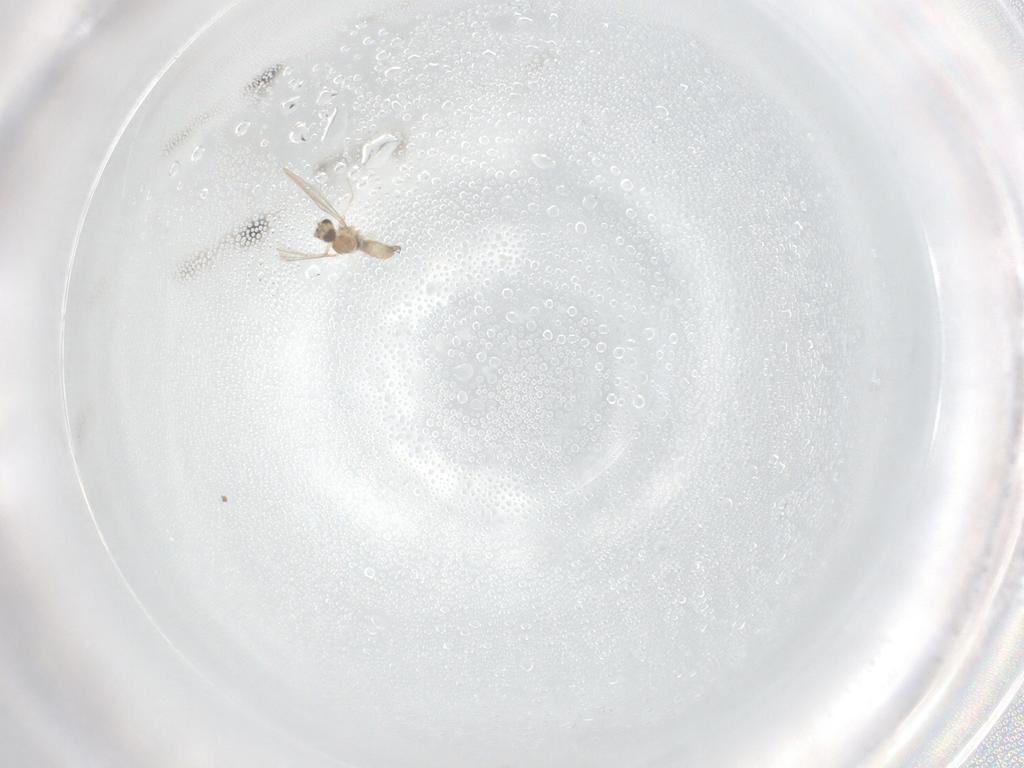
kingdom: Animalia
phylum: Arthropoda
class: Insecta
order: Diptera
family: Cecidomyiidae
